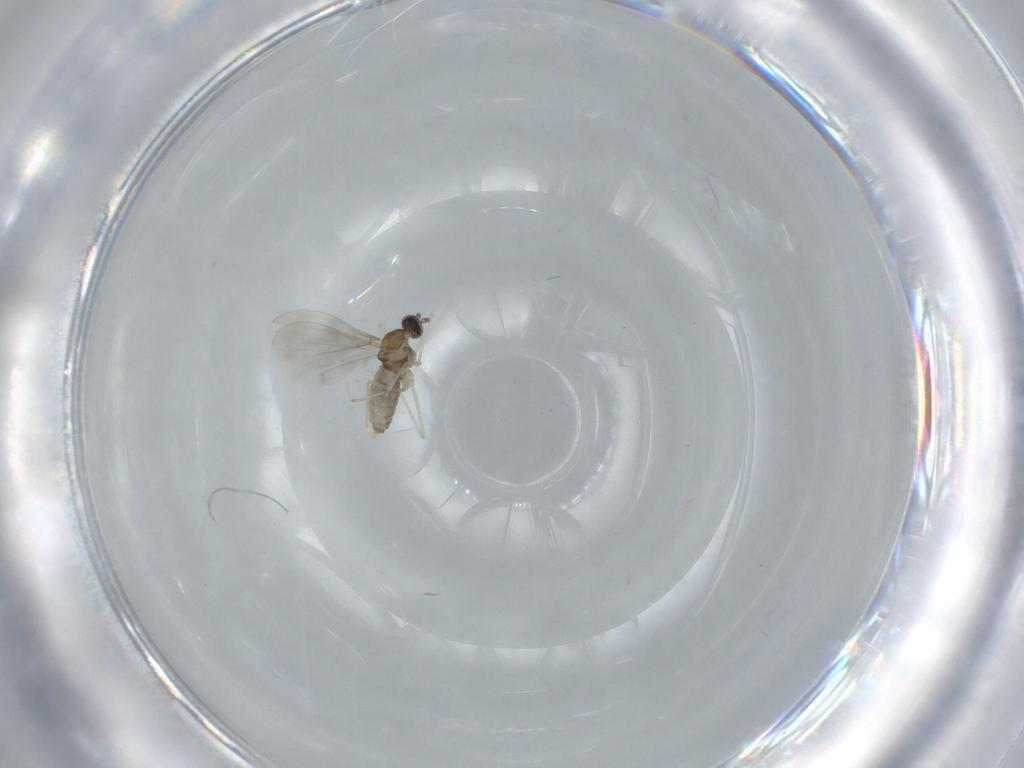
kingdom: Animalia
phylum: Arthropoda
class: Insecta
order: Diptera
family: Cecidomyiidae
